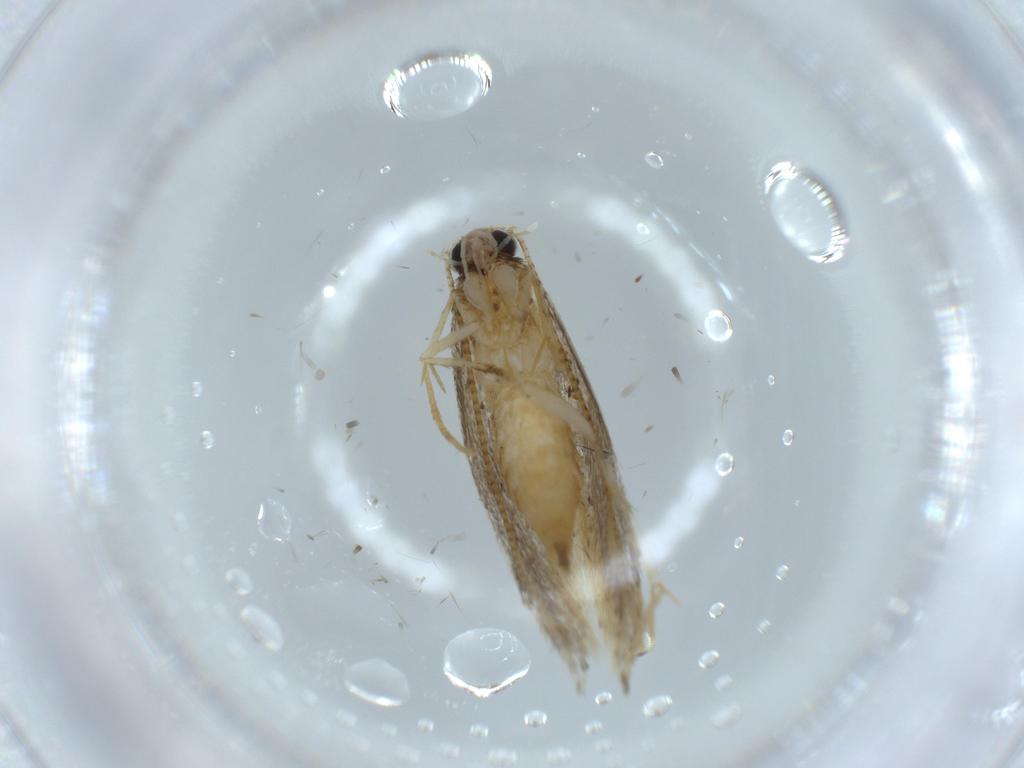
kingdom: Animalia
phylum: Arthropoda
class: Insecta
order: Lepidoptera
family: Tineidae
